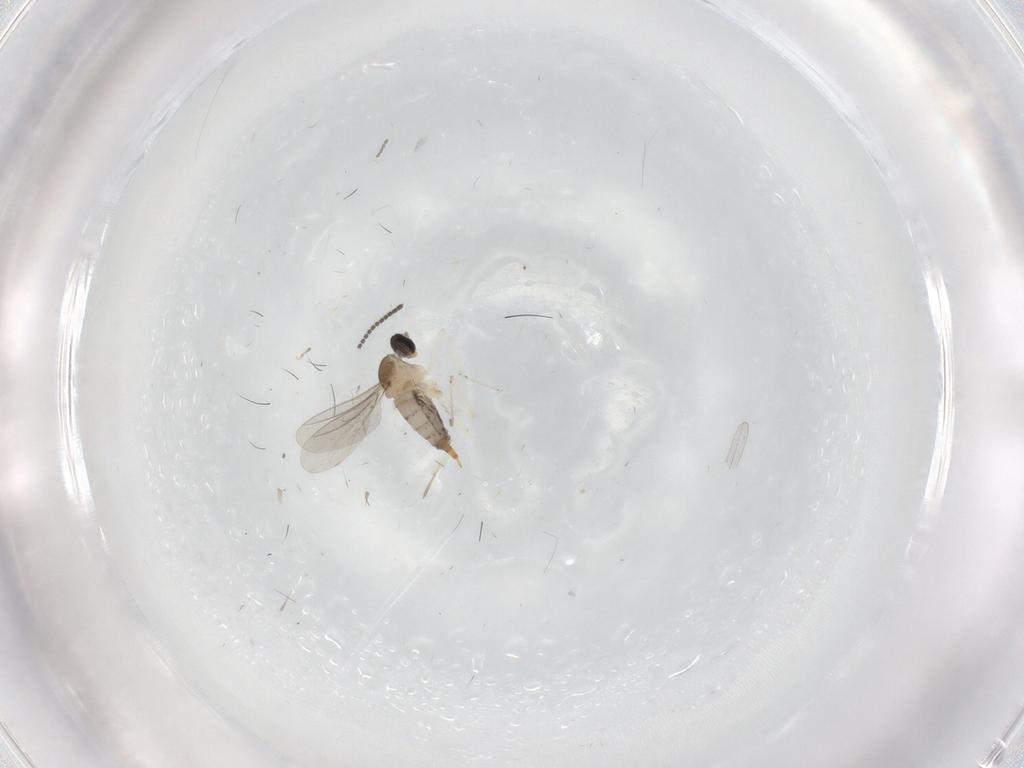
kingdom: Animalia
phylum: Arthropoda
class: Insecta
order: Diptera
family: Cecidomyiidae
